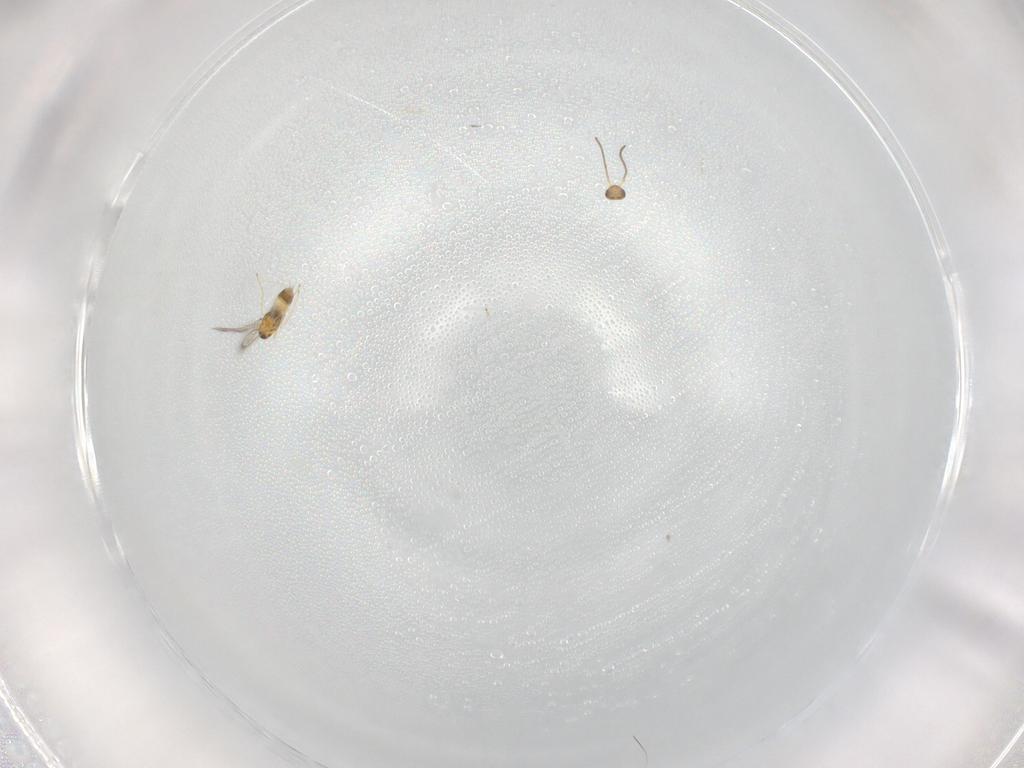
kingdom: Animalia
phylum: Arthropoda
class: Insecta
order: Hymenoptera
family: Mymaridae
